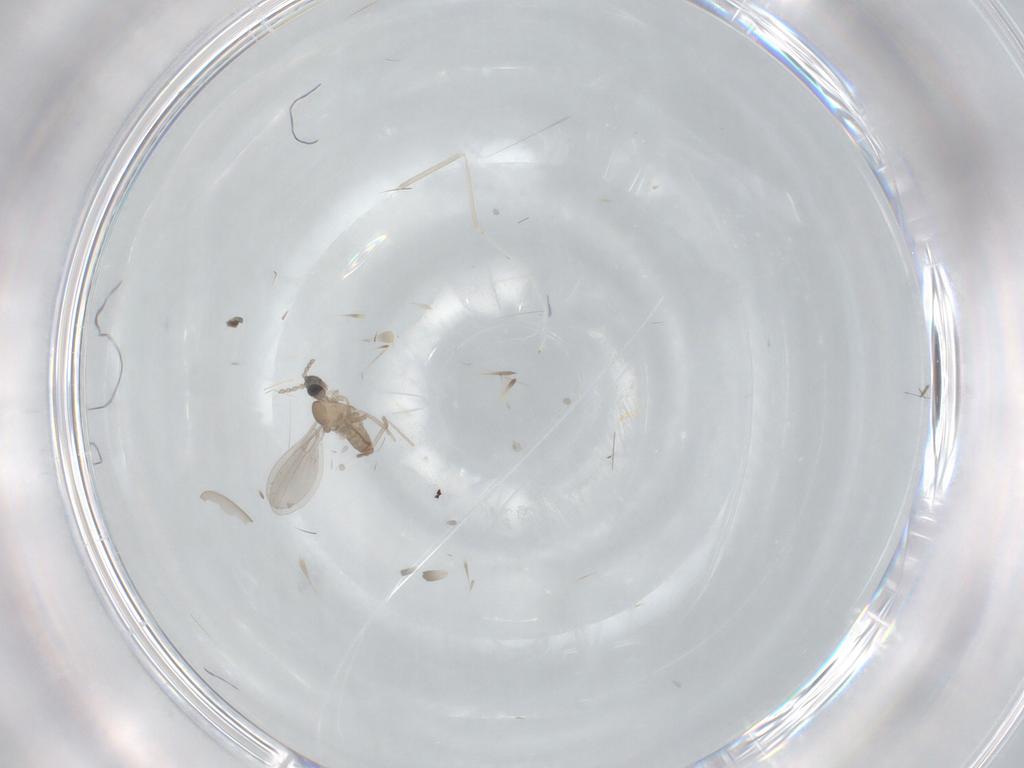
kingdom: Animalia
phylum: Arthropoda
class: Insecta
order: Diptera
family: Cecidomyiidae
